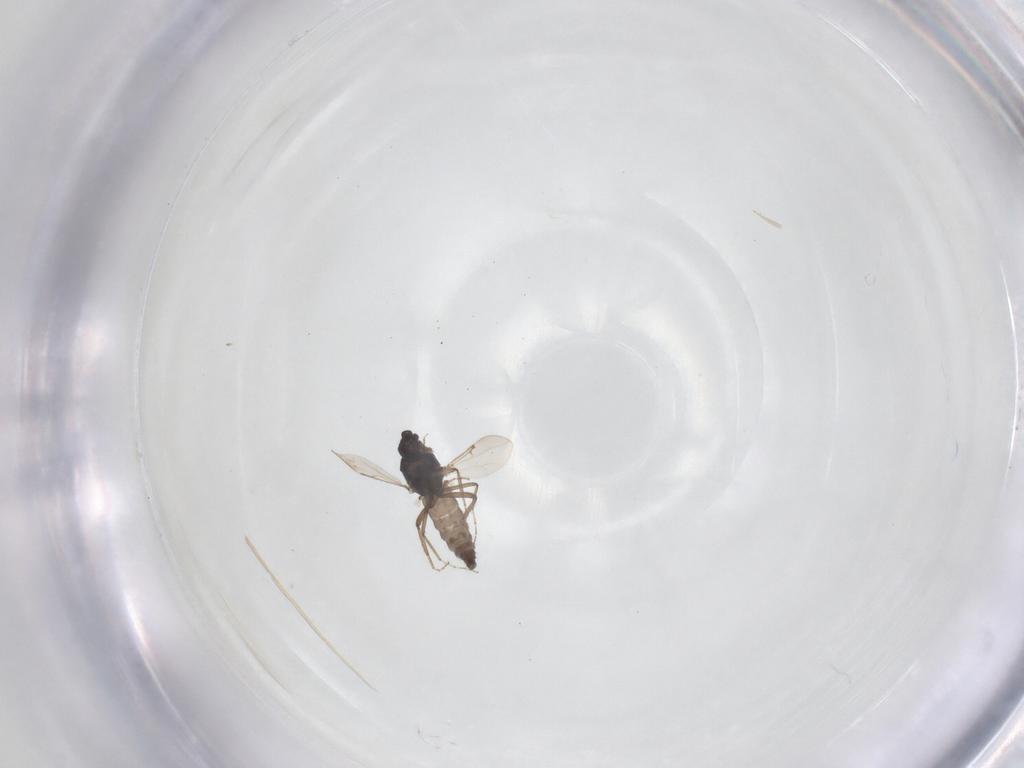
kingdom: Animalia
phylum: Arthropoda
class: Insecta
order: Diptera
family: Ceratopogonidae
